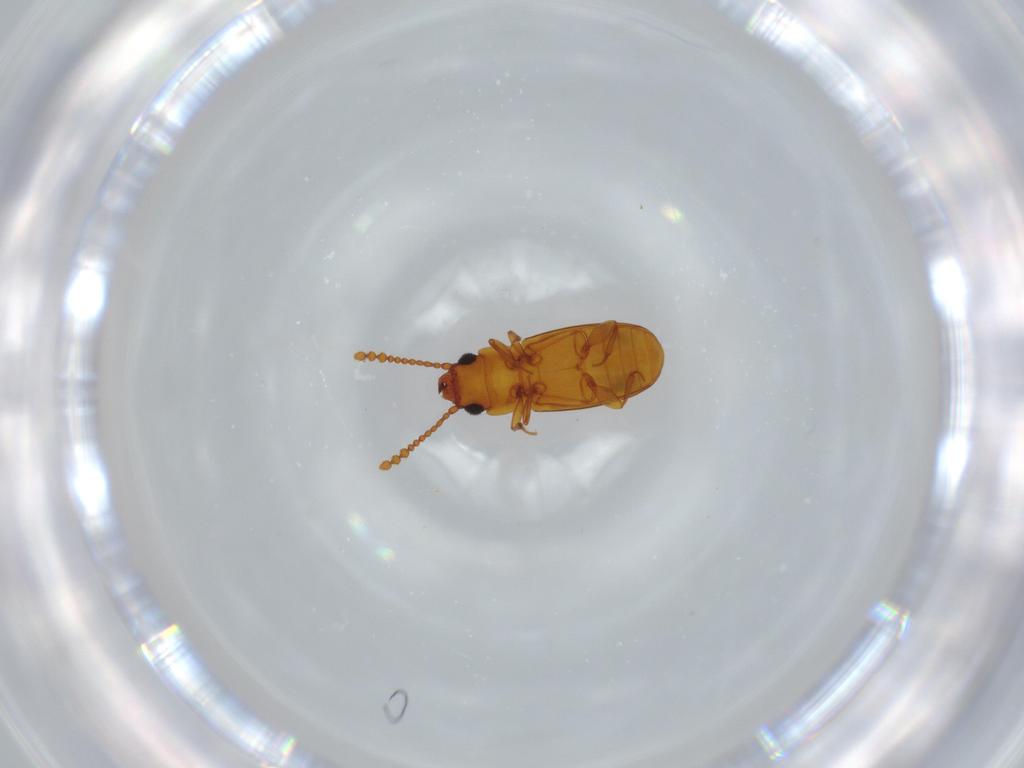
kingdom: Animalia
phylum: Arthropoda
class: Insecta
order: Coleoptera
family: Laemophloeidae
